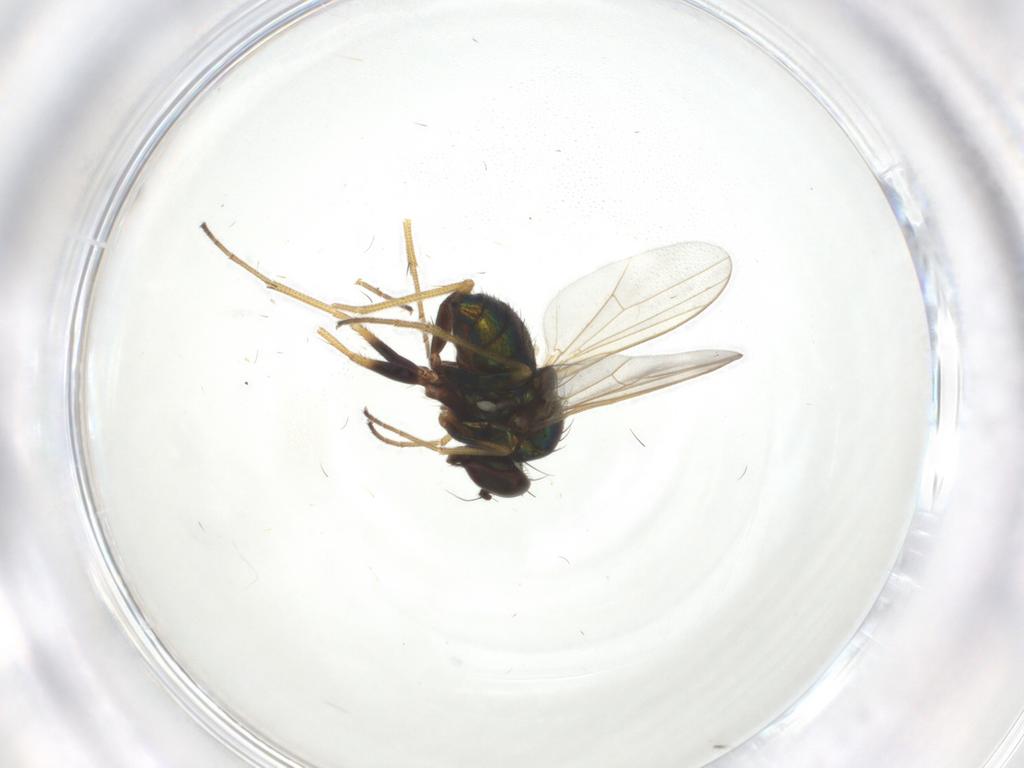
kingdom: Animalia
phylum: Arthropoda
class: Insecta
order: Diptera
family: Dolichopodidae
